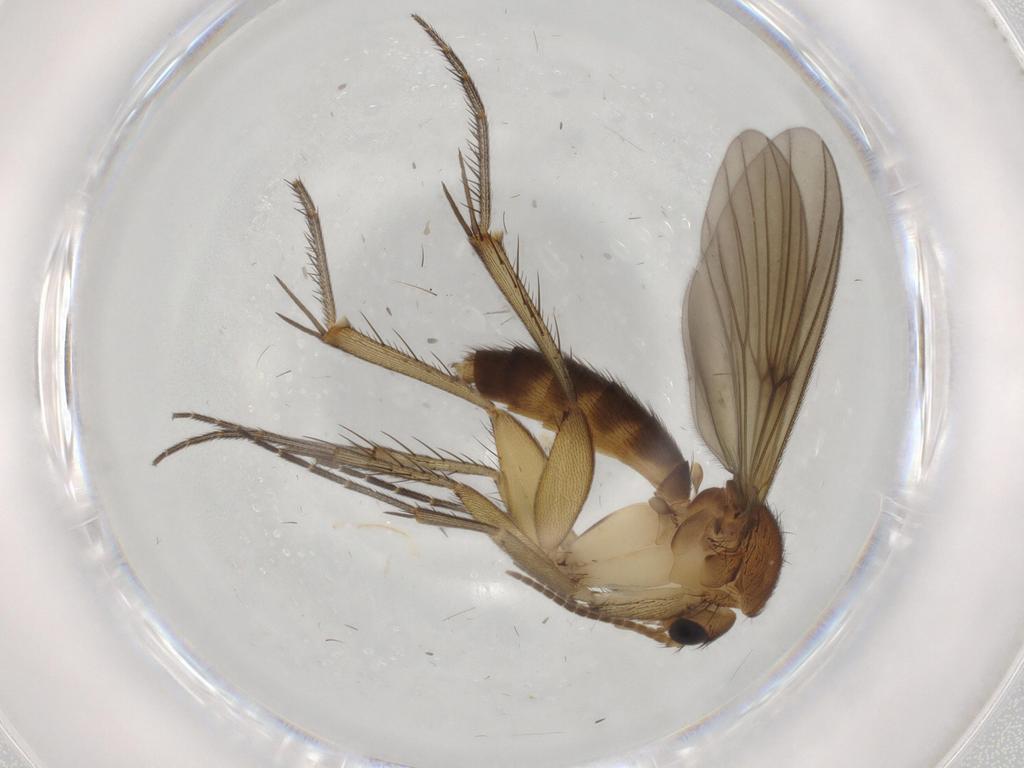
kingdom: Animalia
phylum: Arthropoda
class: Insecta
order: Diptera
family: Mycetophilidae
